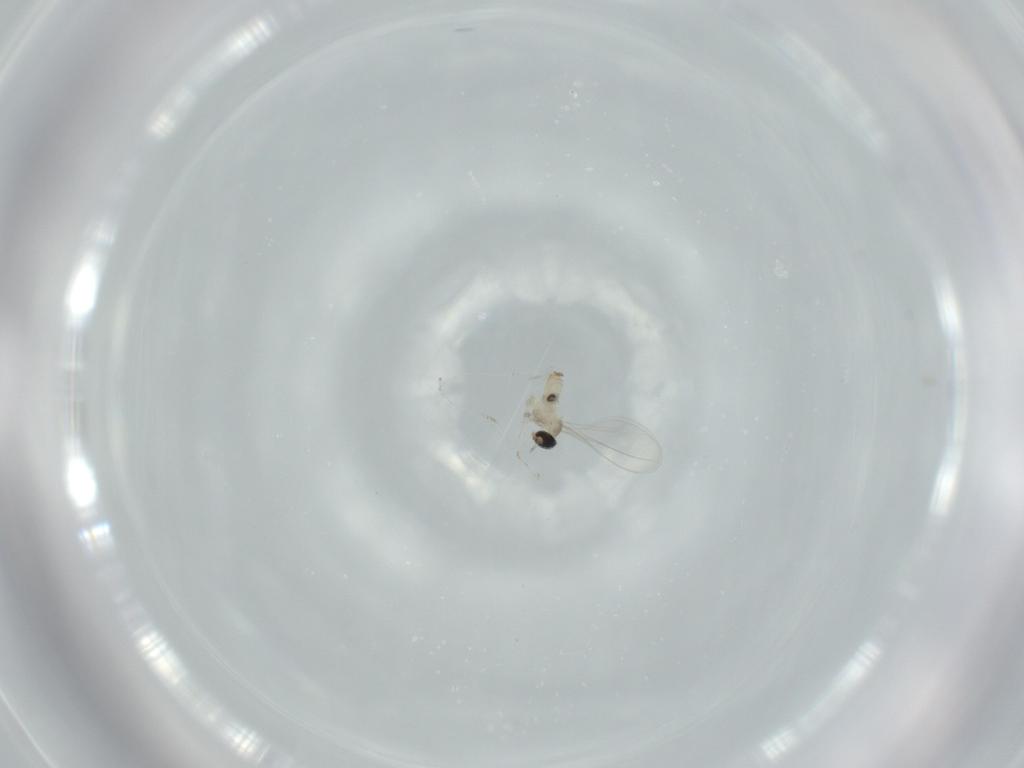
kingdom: Animalia
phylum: Arthropoda
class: Insecta
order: Diptera
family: Cecidomyiidae
